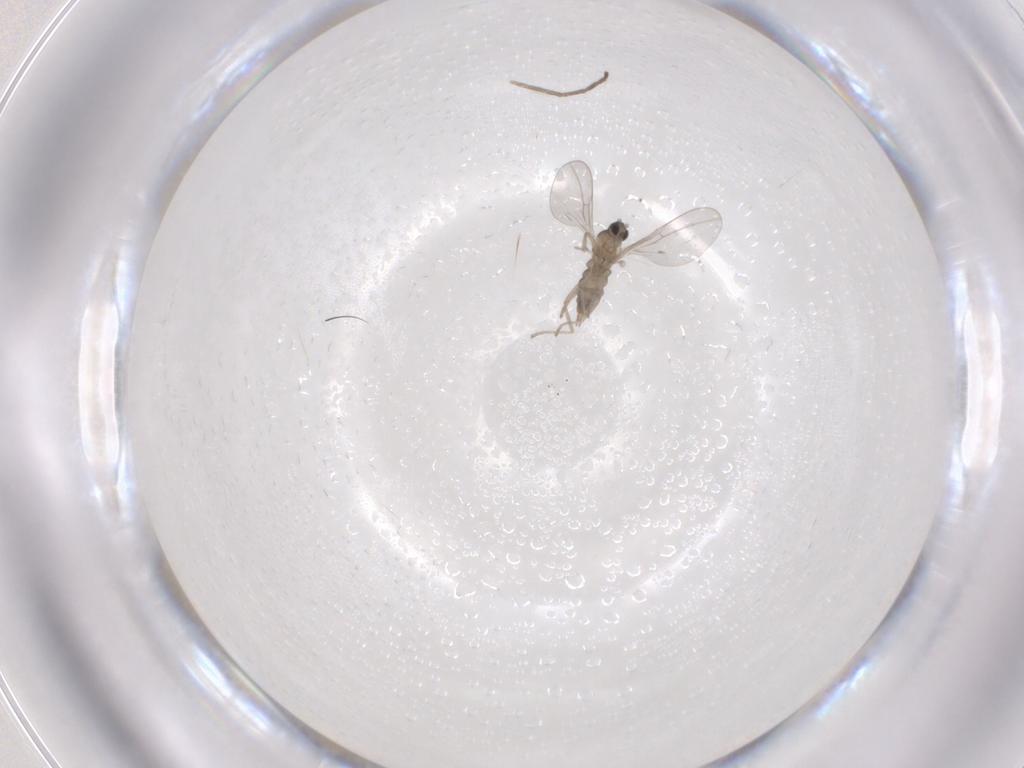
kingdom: Animalia
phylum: Arthropoda
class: Insecta
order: Diptera
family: Cecidomyiidae
